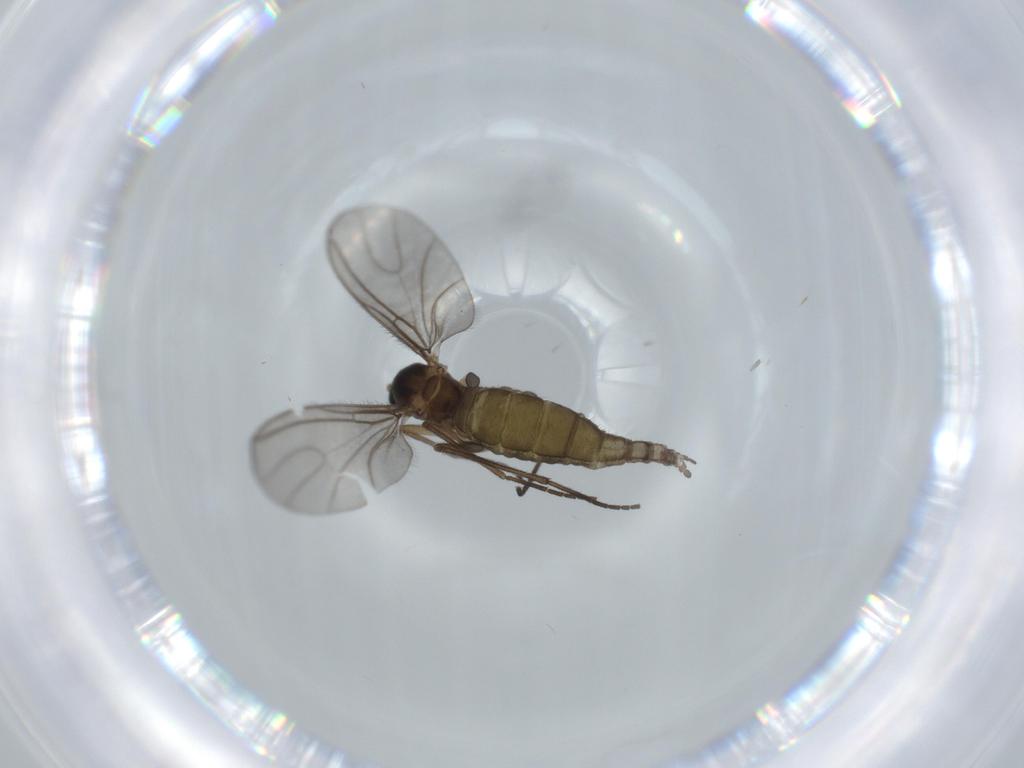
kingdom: Animalia
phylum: Arthropoda
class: Insecta
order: Diptera
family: Sciaridae
